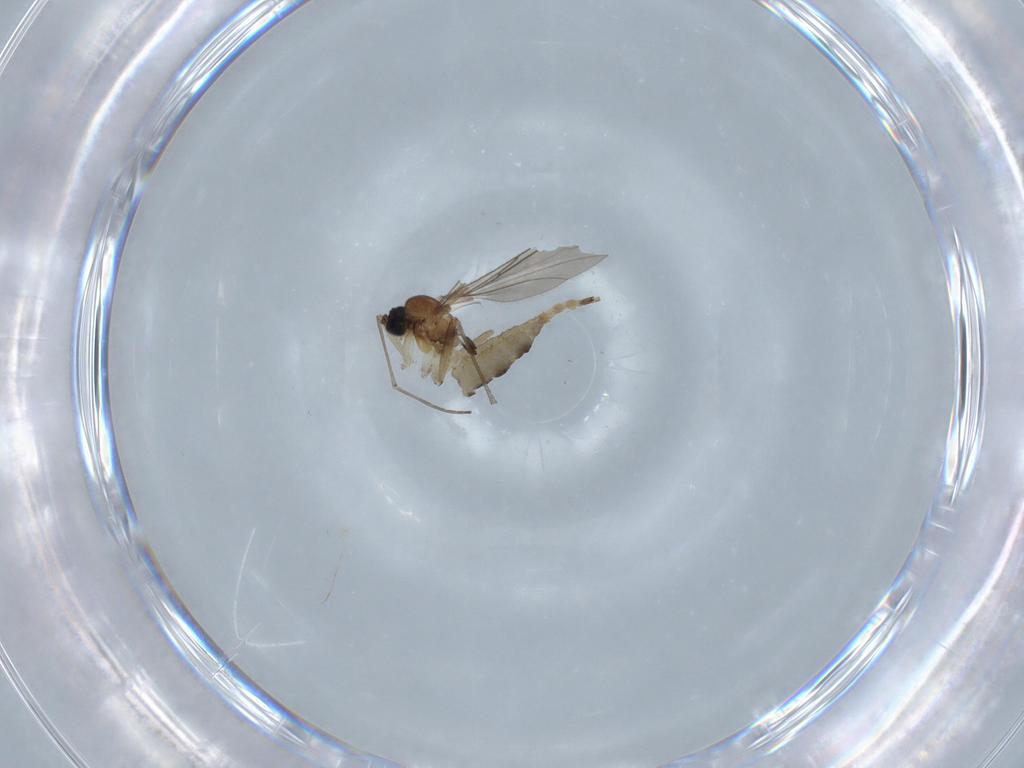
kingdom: Animalia
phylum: Arthropoda
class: Insecta
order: Diptera
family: Sciaridae
